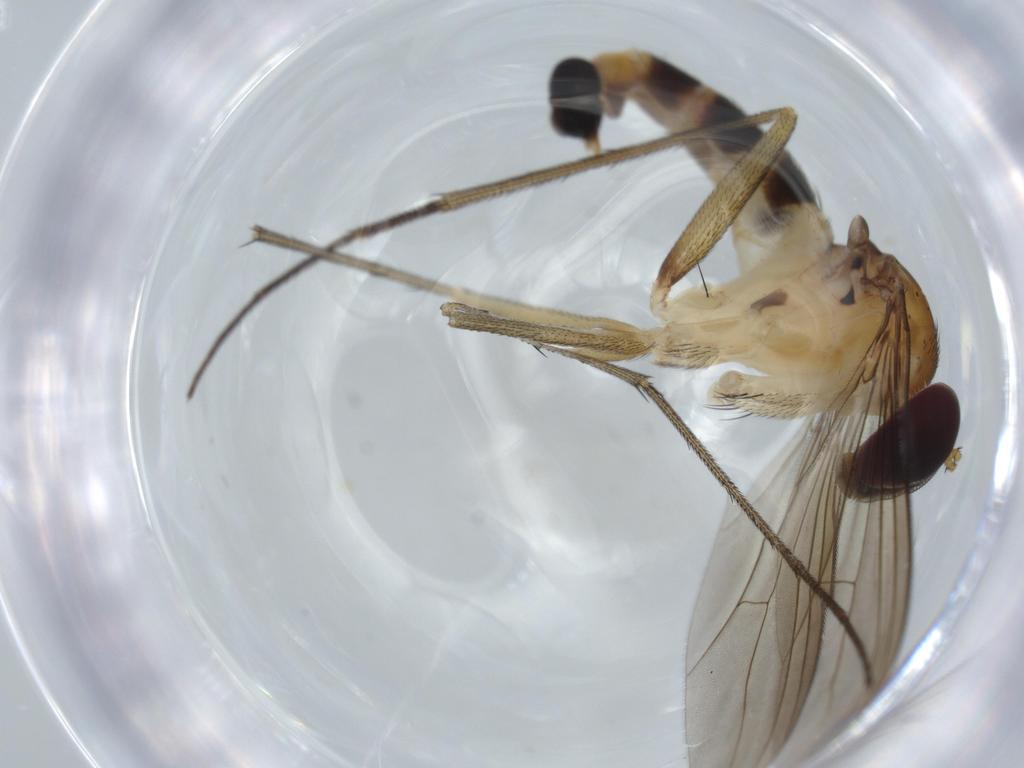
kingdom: Animalia
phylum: Arthropoda
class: Insecta
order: Diptera
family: Dolichopodidae
